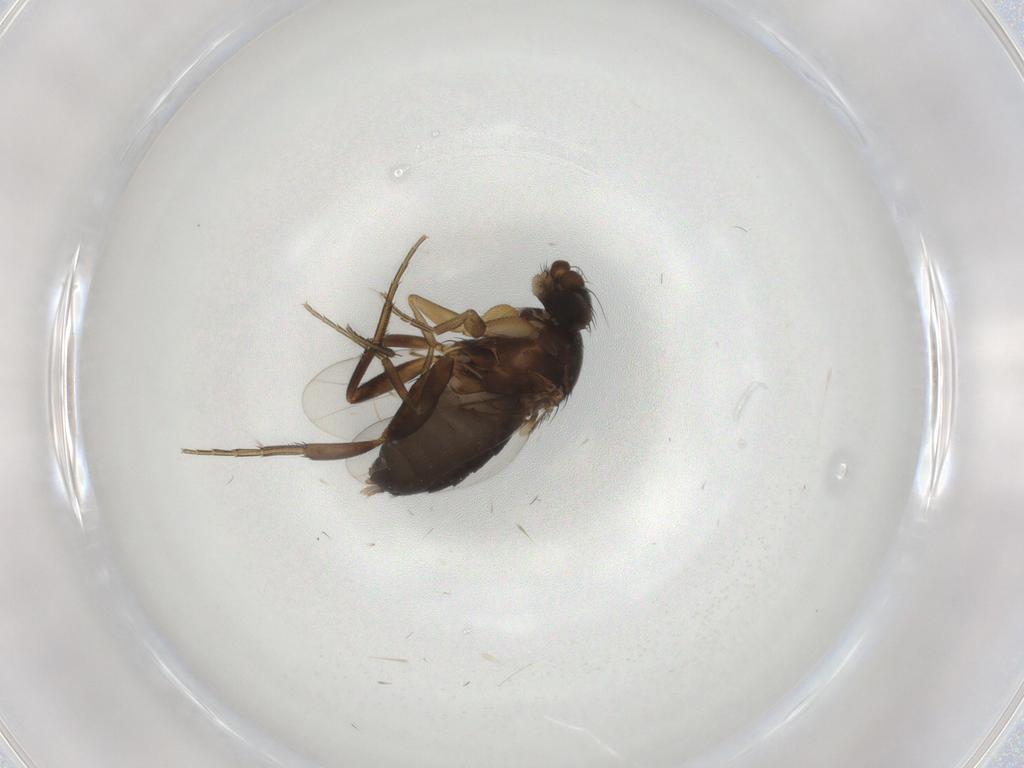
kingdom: Animalia
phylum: Arthropoda
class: Insecta
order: Diptera
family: Phoridae
